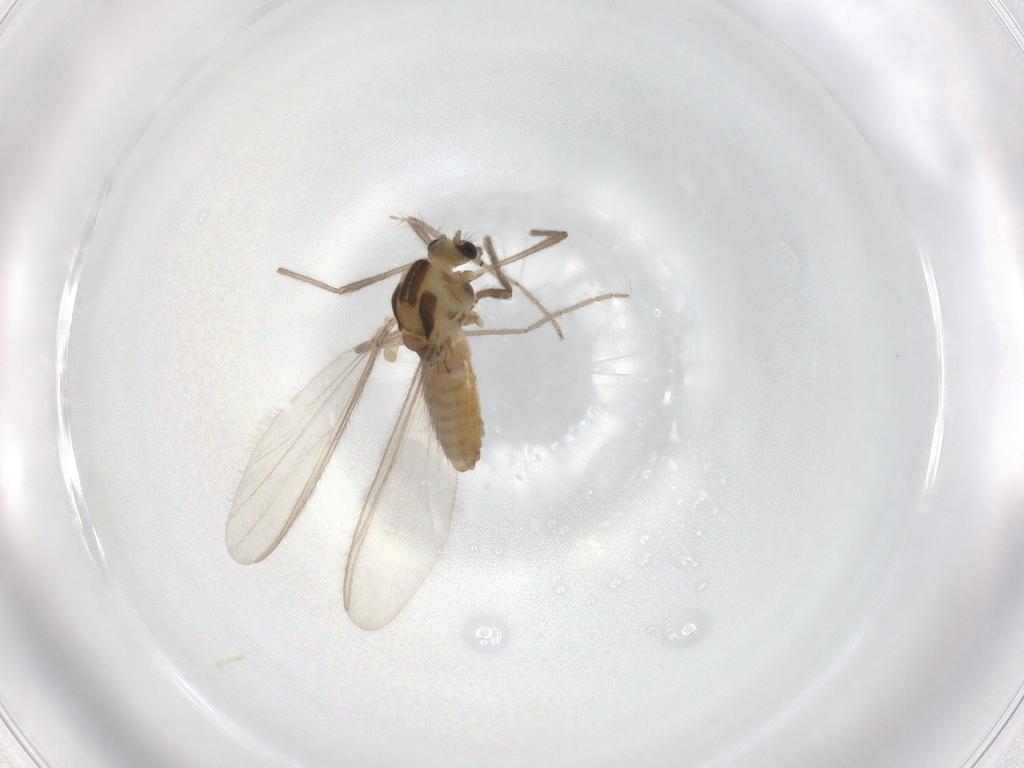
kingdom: Animalia
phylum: Arthropoda
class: Insecta
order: Diptera
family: Chironomidae
